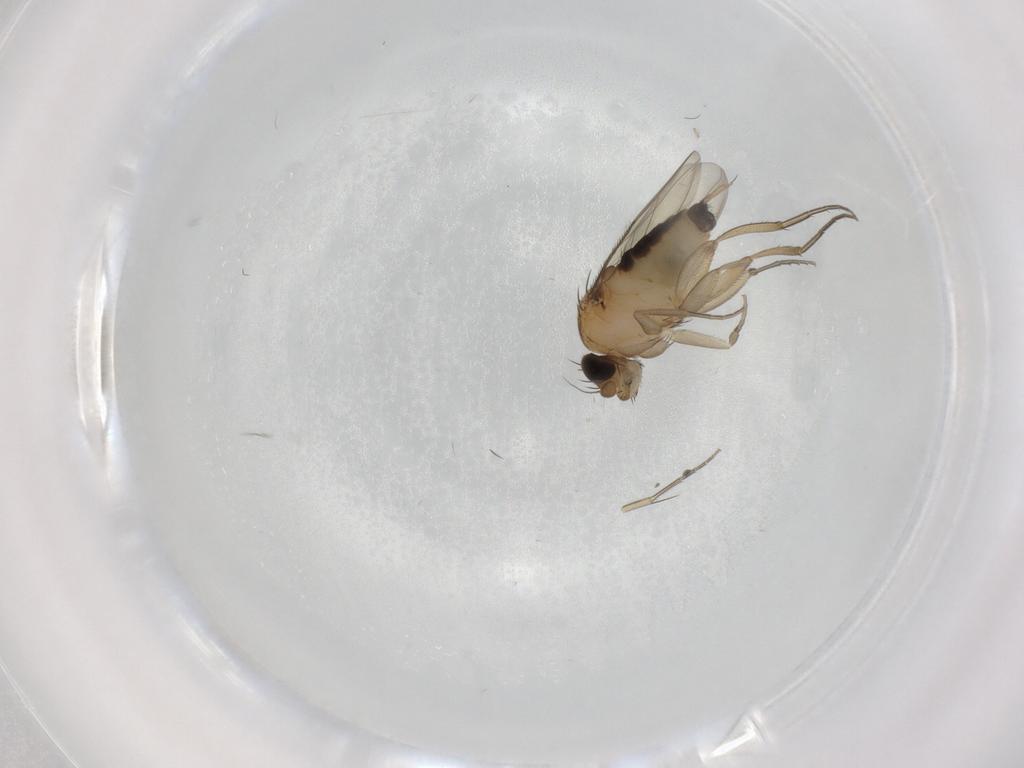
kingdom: Animalia
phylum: Arthropoda
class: Insecta
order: Diptera
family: Phoridae
